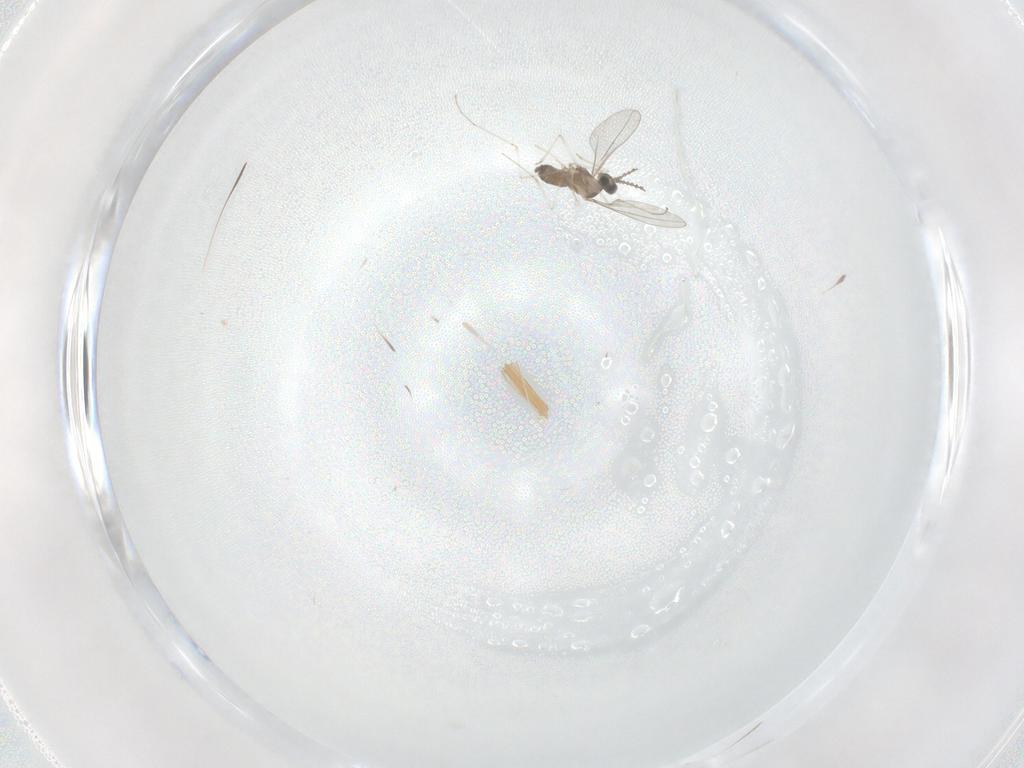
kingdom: Animalia
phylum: Arthropoda
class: Insecta
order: Diptera
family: Cecidomyiidae
